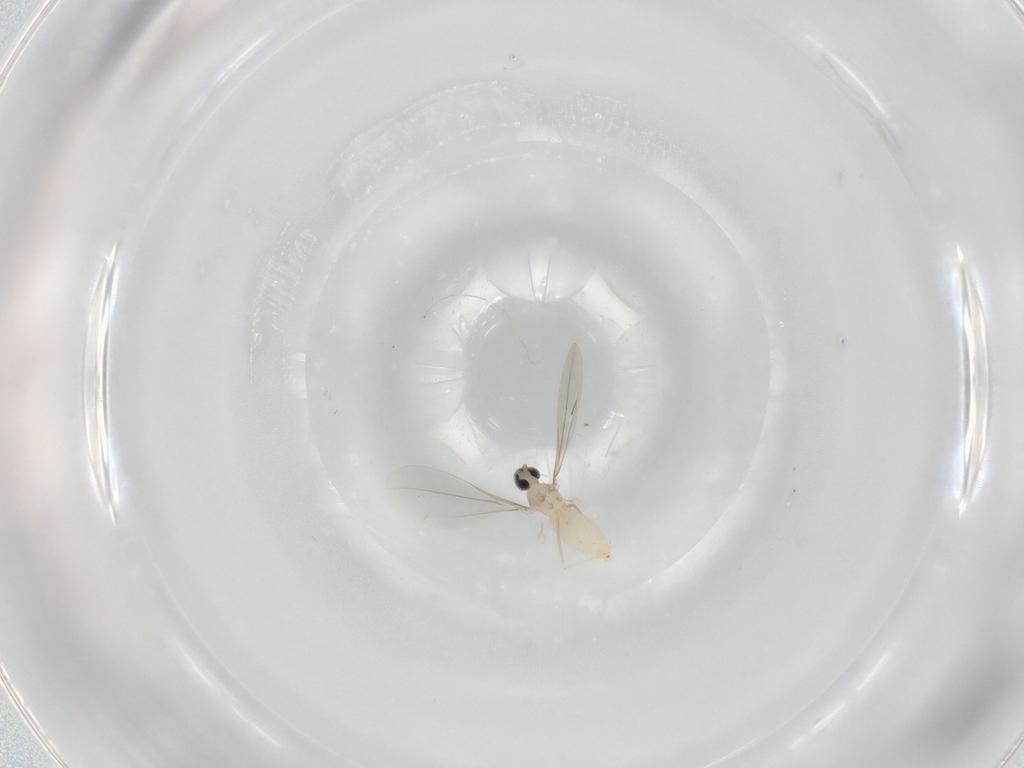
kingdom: Animalia
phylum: Arthropoda
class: Insecta
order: Diptera
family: Cecidomyiidae
